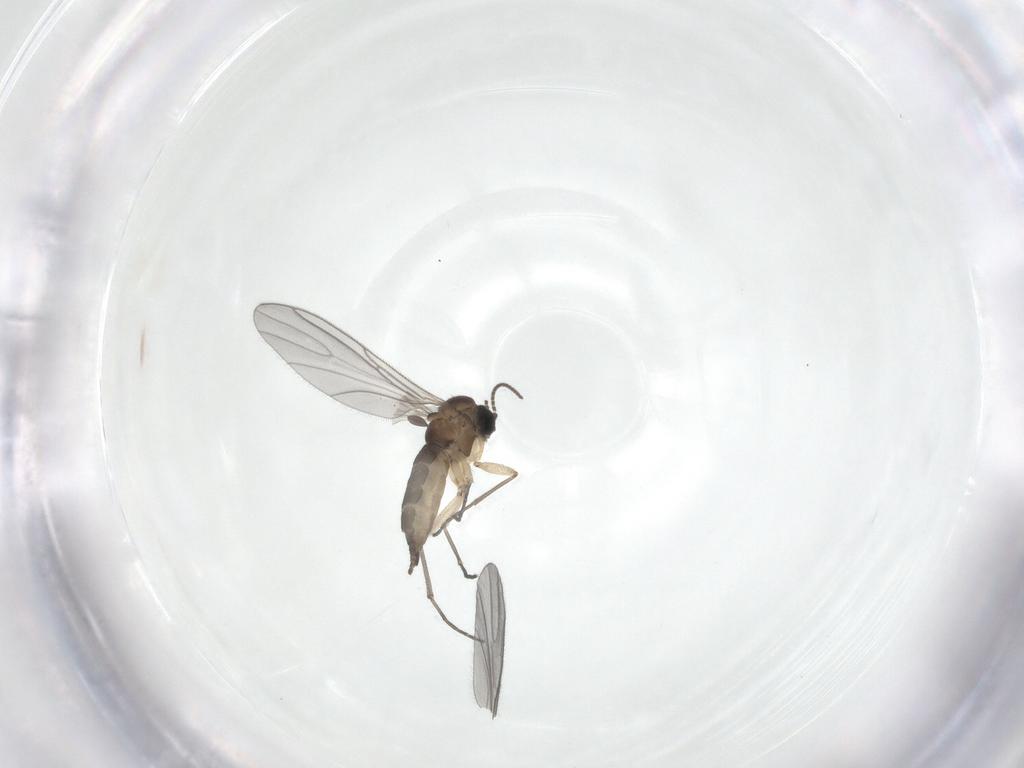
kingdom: Animalia
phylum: Arthropoda
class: Insecta
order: Diptera
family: Sciaridae
